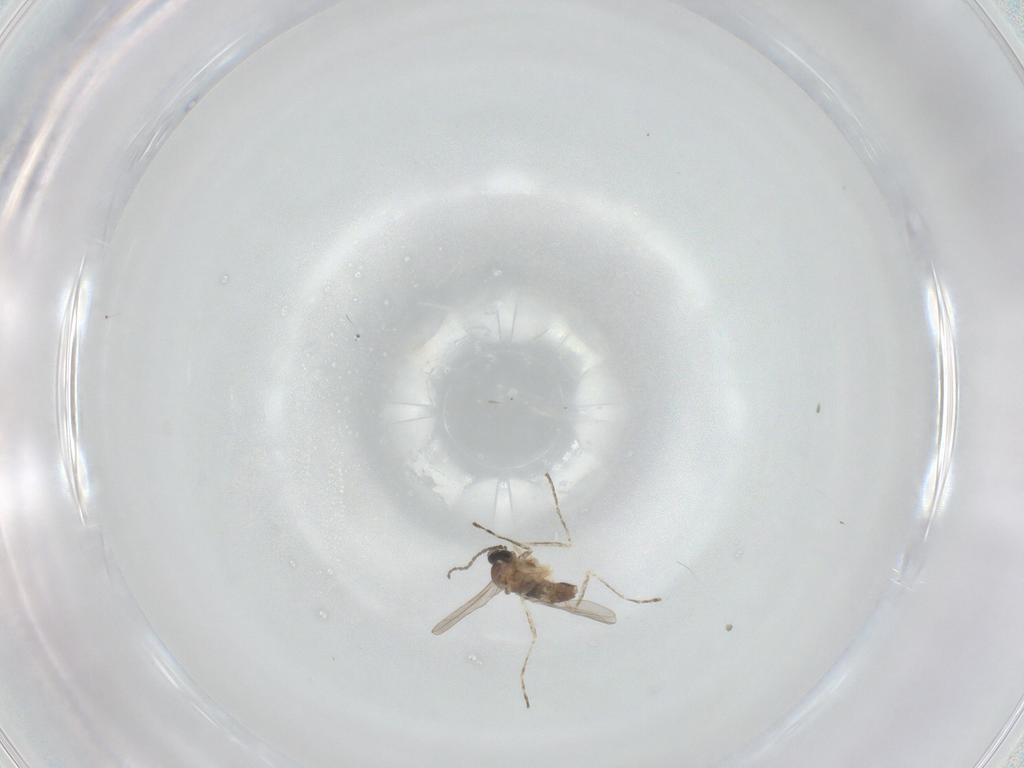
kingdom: Animalia
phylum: Arthropoda
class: Insecta
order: Diptera
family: Cecidomyiidae
